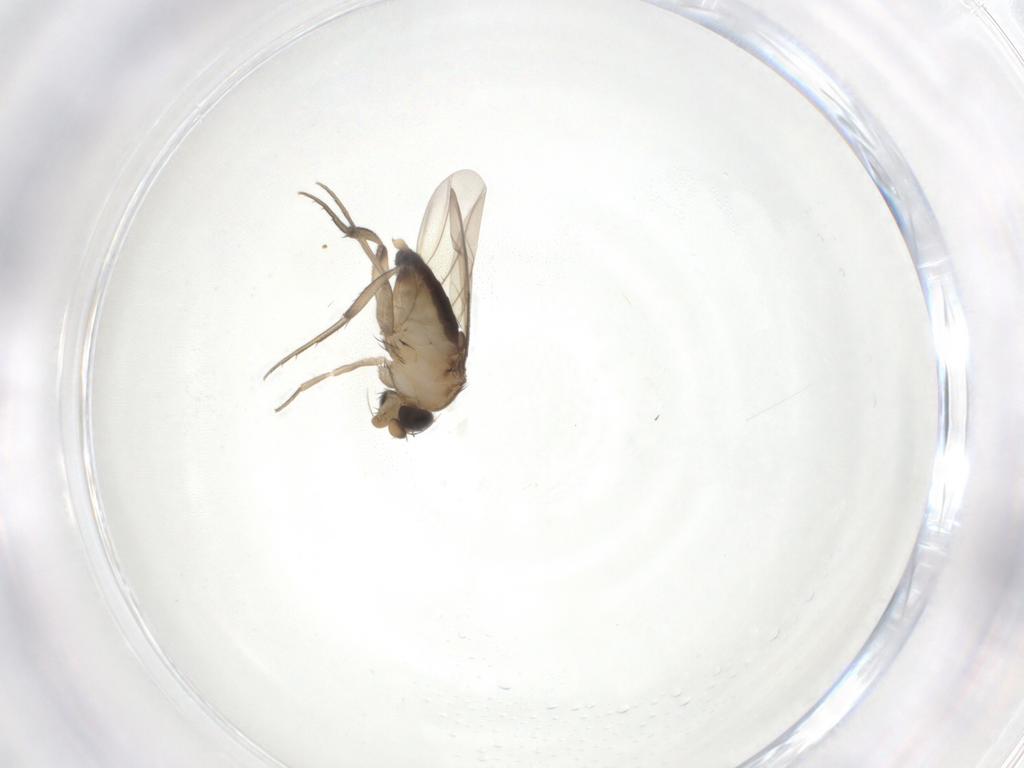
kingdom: Animalia
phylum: Arthropoda
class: Insecta
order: Diptera
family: Phoridae
